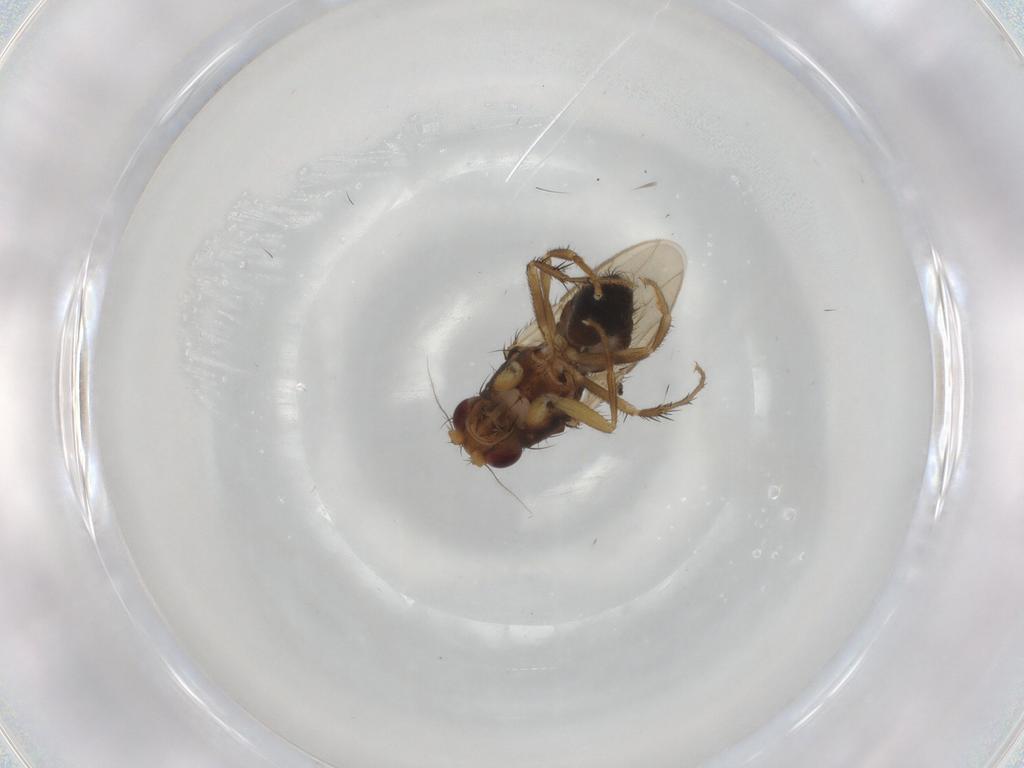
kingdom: Animalia
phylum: Arthropoda
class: Insecta
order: Diptera
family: Sphaeroceridae
